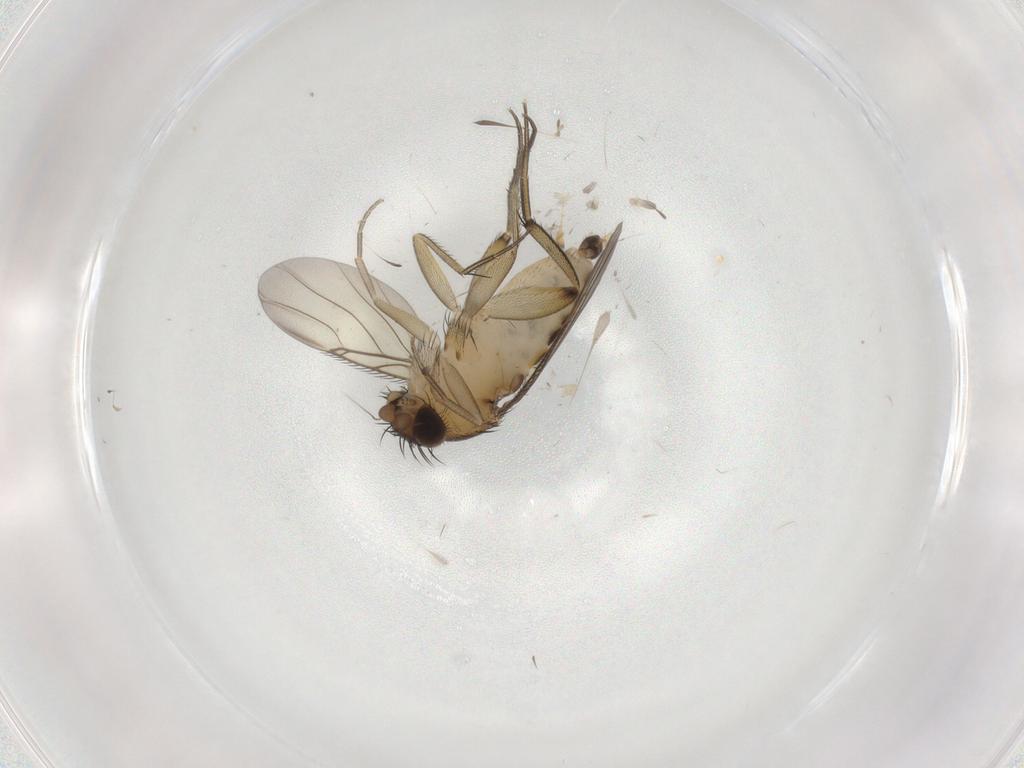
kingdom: Animalia
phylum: Arthropoda
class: Insecta
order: Diptera
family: Phoridae
